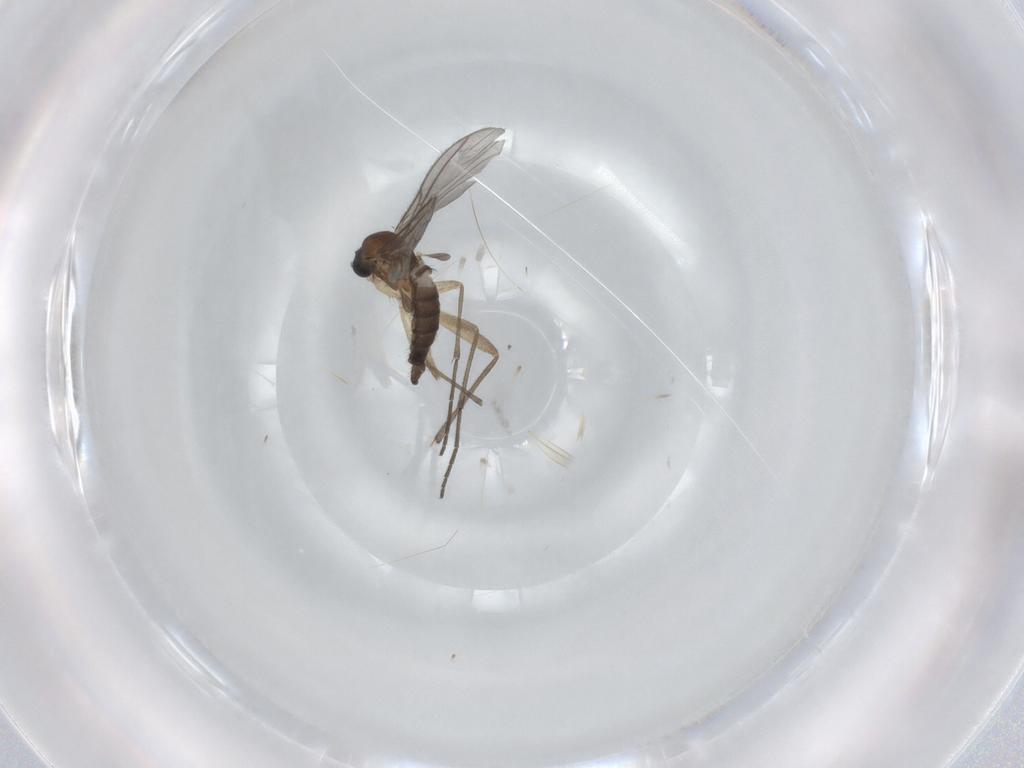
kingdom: Animalia
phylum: Arthropoda
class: Insecta
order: Diptera
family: Sciaridae
